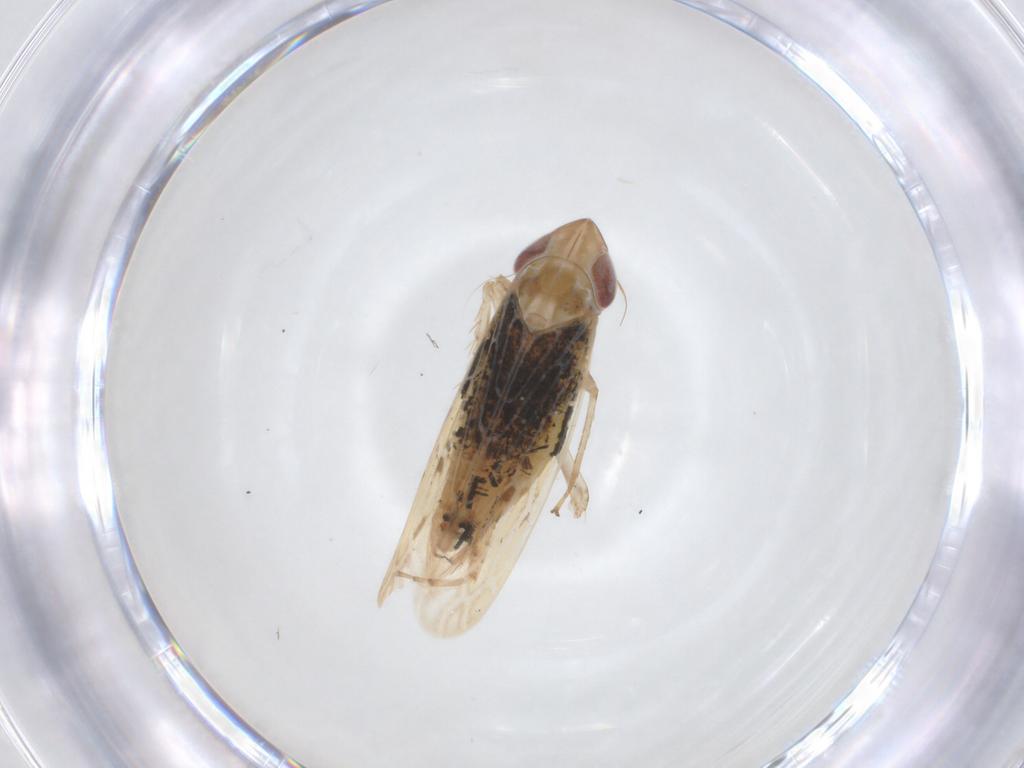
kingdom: Animalia
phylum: Arthropoda
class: Insecta
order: Hemiptera
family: Cicadellidae
